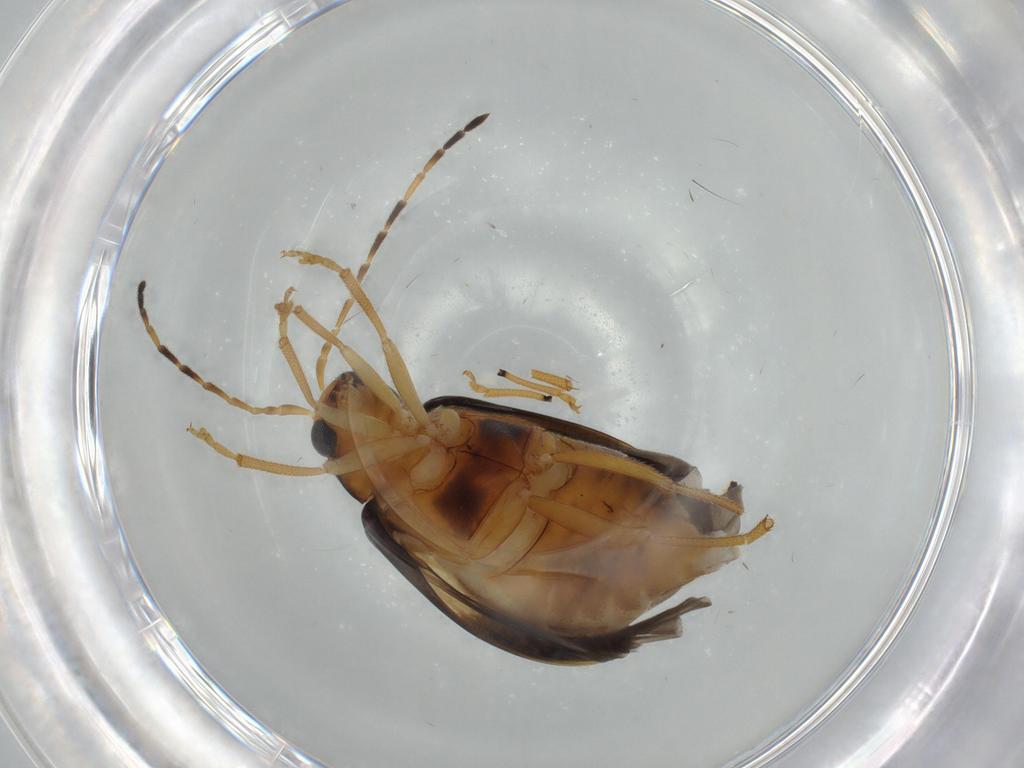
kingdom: Animalia
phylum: Arthropoda
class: Insecta
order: Coleoptera
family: Chrysomelidae
